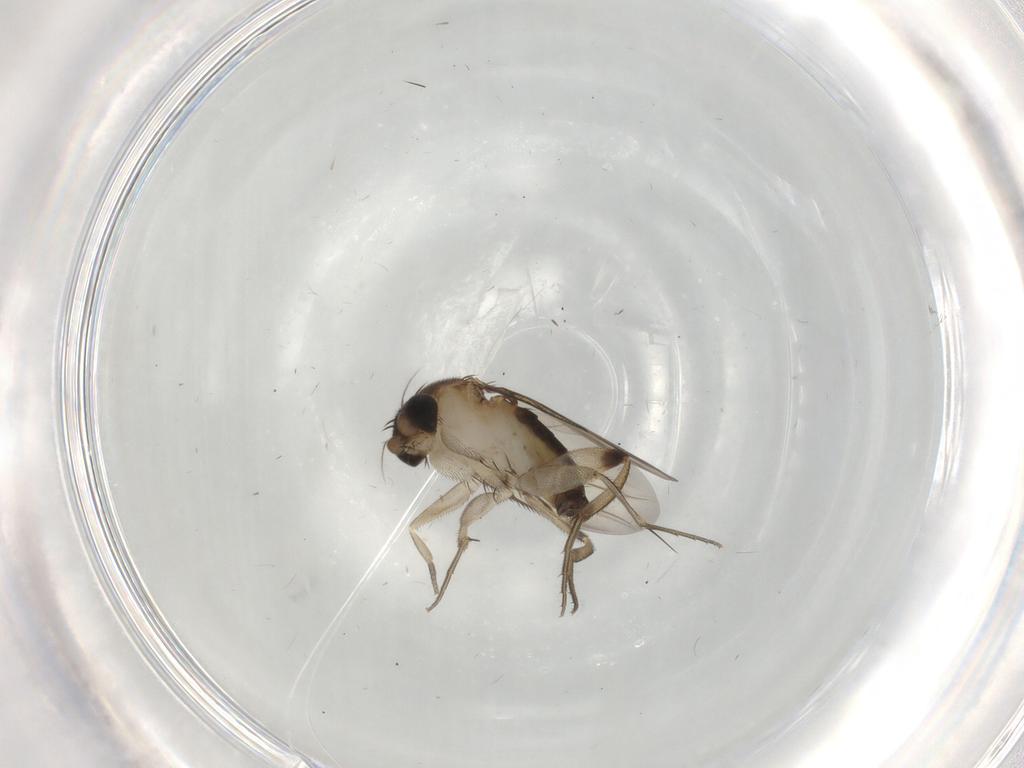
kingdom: Animalia
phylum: Arthropoda
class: Insecta
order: Diptera
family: Phoridae
